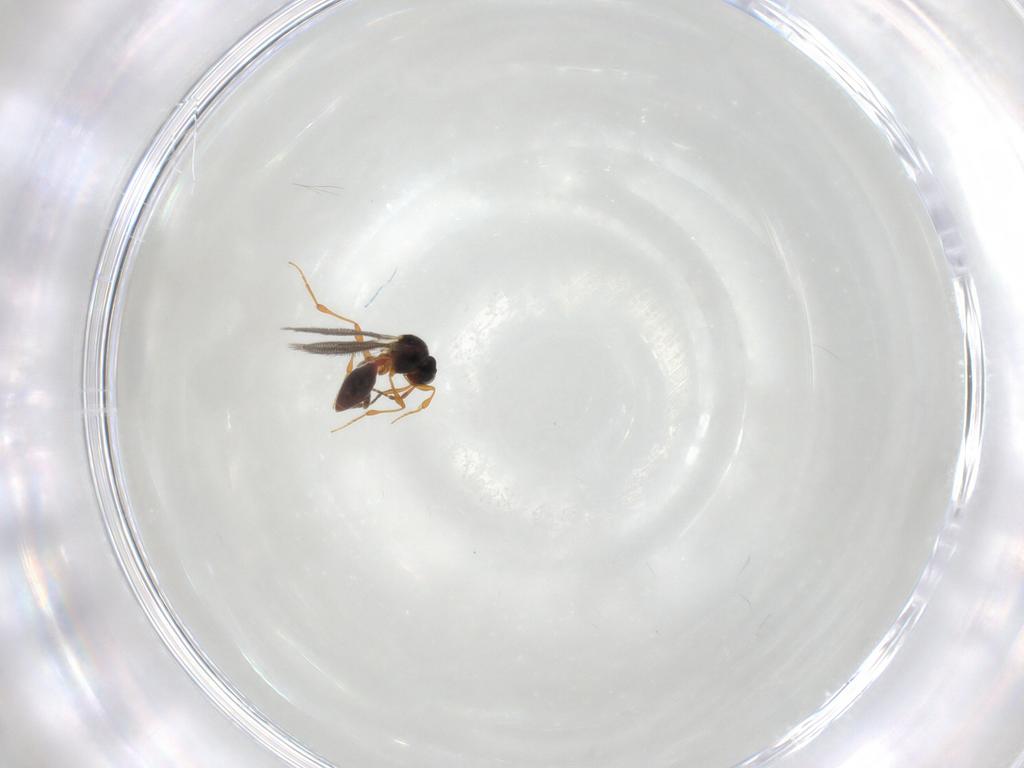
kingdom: Animalia
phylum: Arthropoda
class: Insecta
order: Hymenoptera
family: Platygastridae
